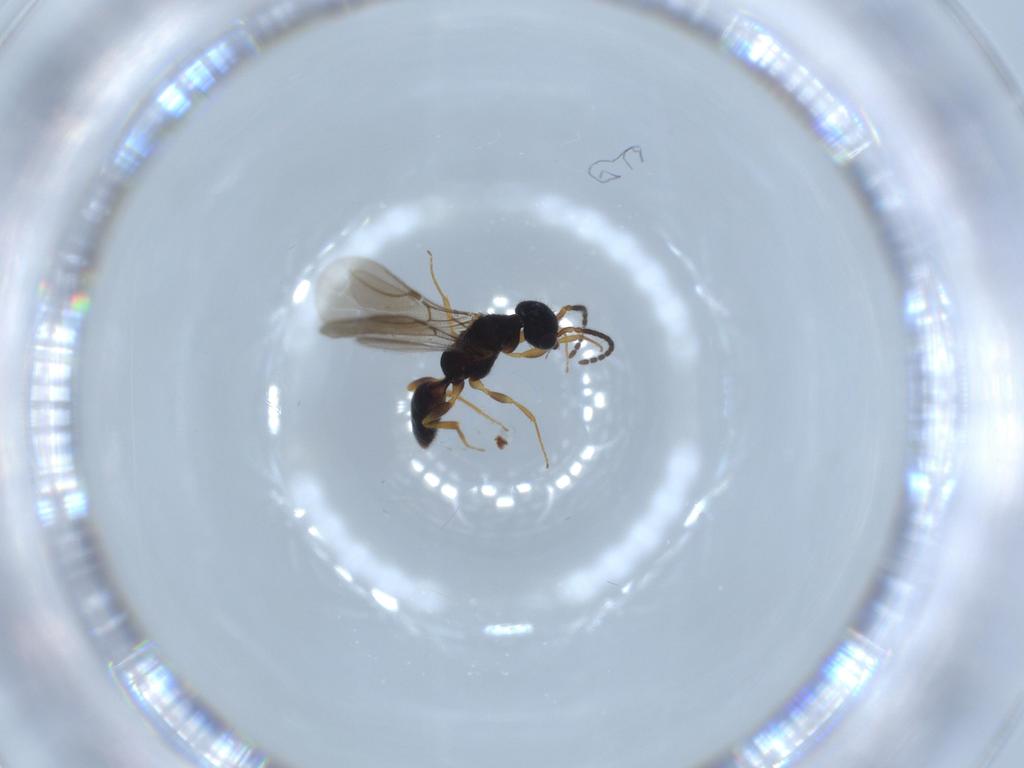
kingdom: Animalia
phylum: Arthropoda
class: Insecta
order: Hymenoptera
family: Bethylidae
